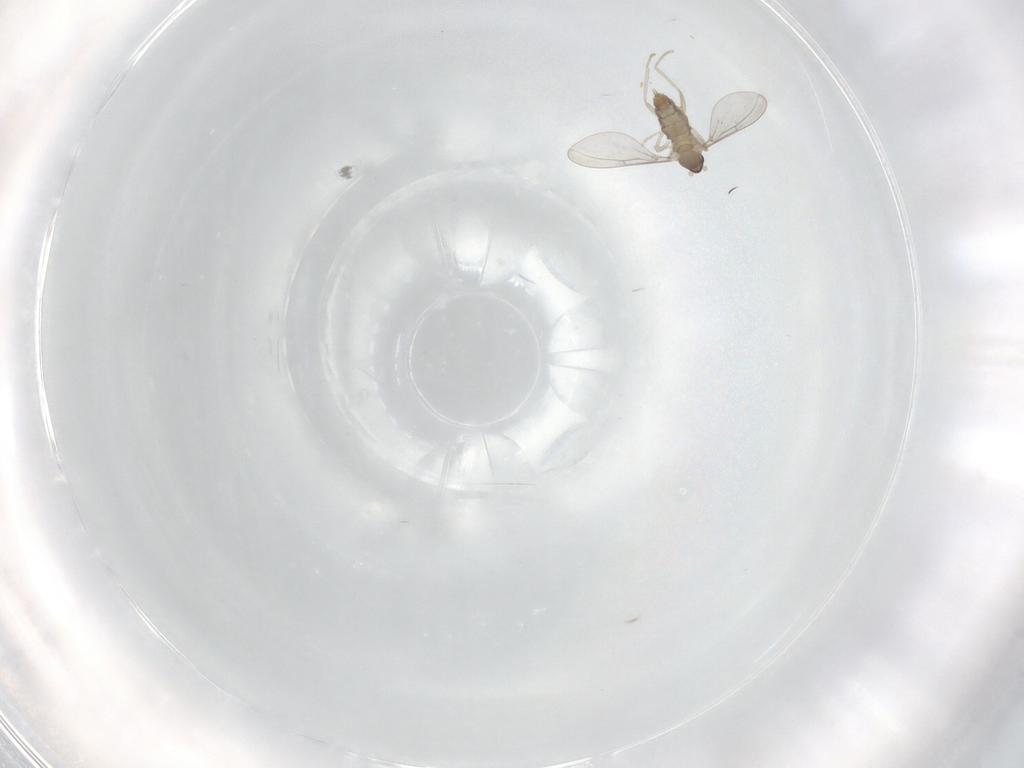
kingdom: Animalia
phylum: Arthropoda
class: Insecta
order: Diptera
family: Cecidomyiidae
